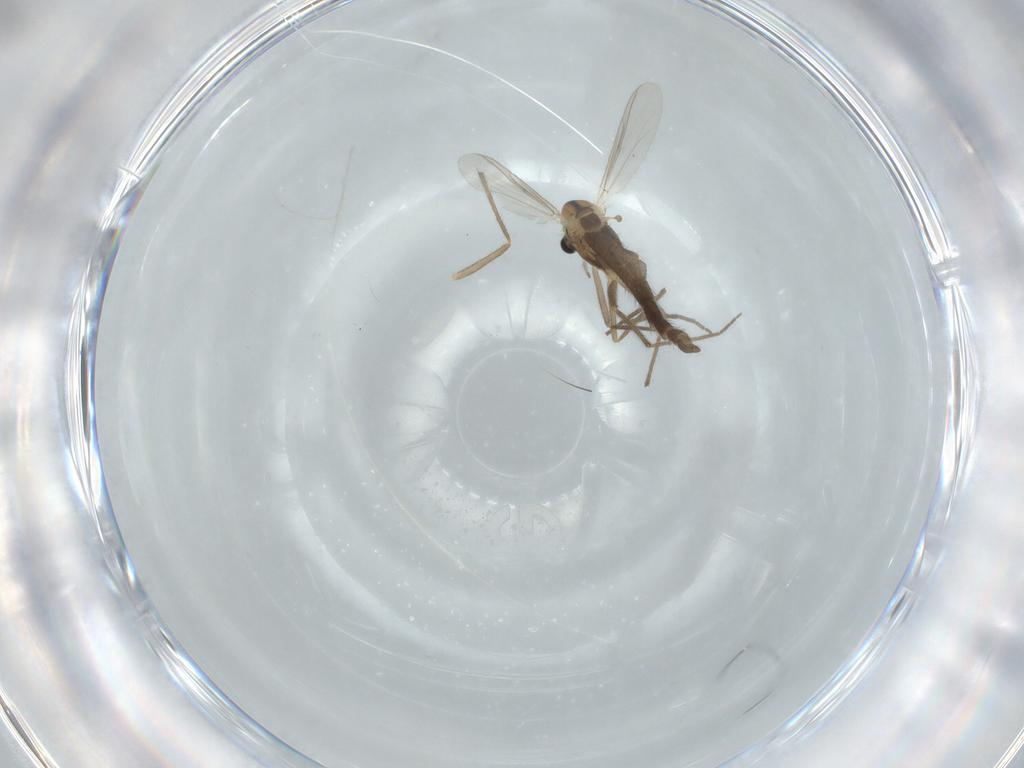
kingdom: Animalia
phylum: Arthropoda
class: Insecta
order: Diptera
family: Chironomidae
